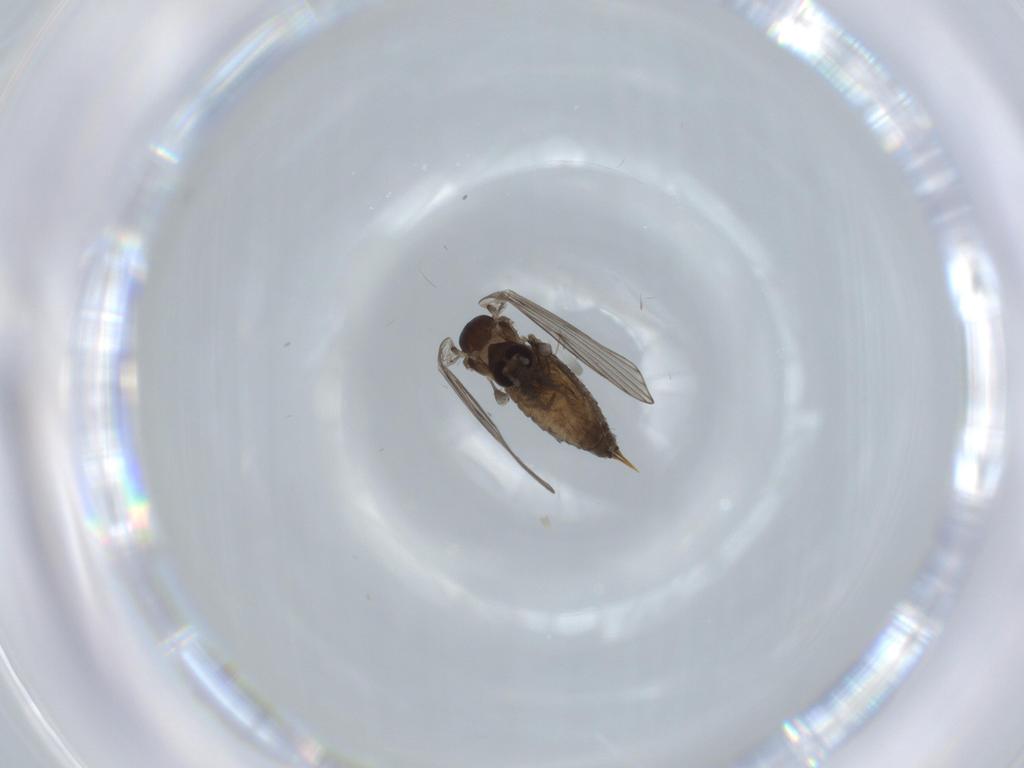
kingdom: Animalia
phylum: Arthropoda
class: Insecta
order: Diptera
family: Psychodidae
